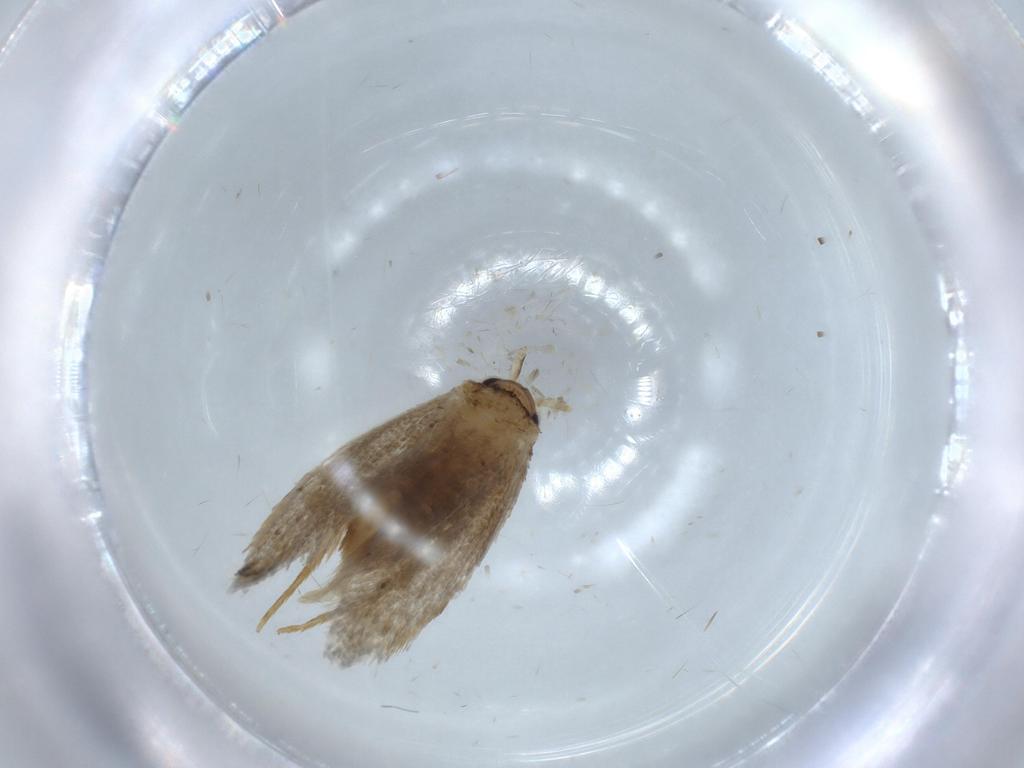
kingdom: Animalia
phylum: Arthropoda
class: Insecta
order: Lepidoptera
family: Tineidae
